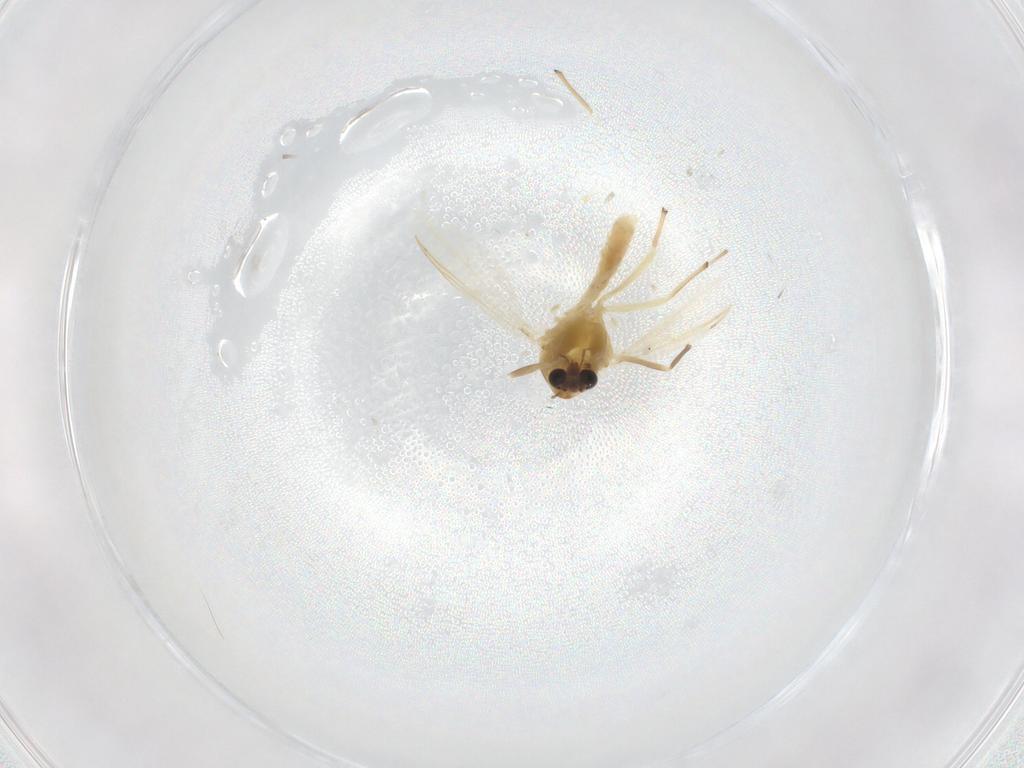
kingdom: Animalia
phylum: Arthropoda
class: Insecta
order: Diptera
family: Chironomidae
